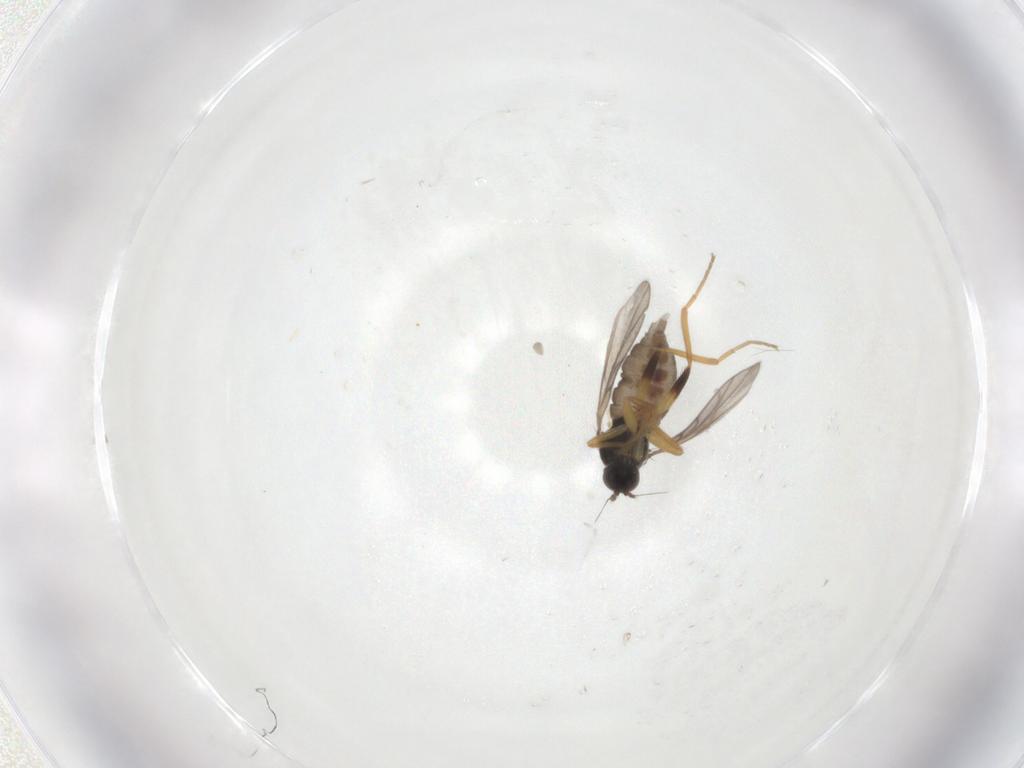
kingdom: Animalia
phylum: Arthropoda
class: Insecta
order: Diptera
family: Hybotidae
